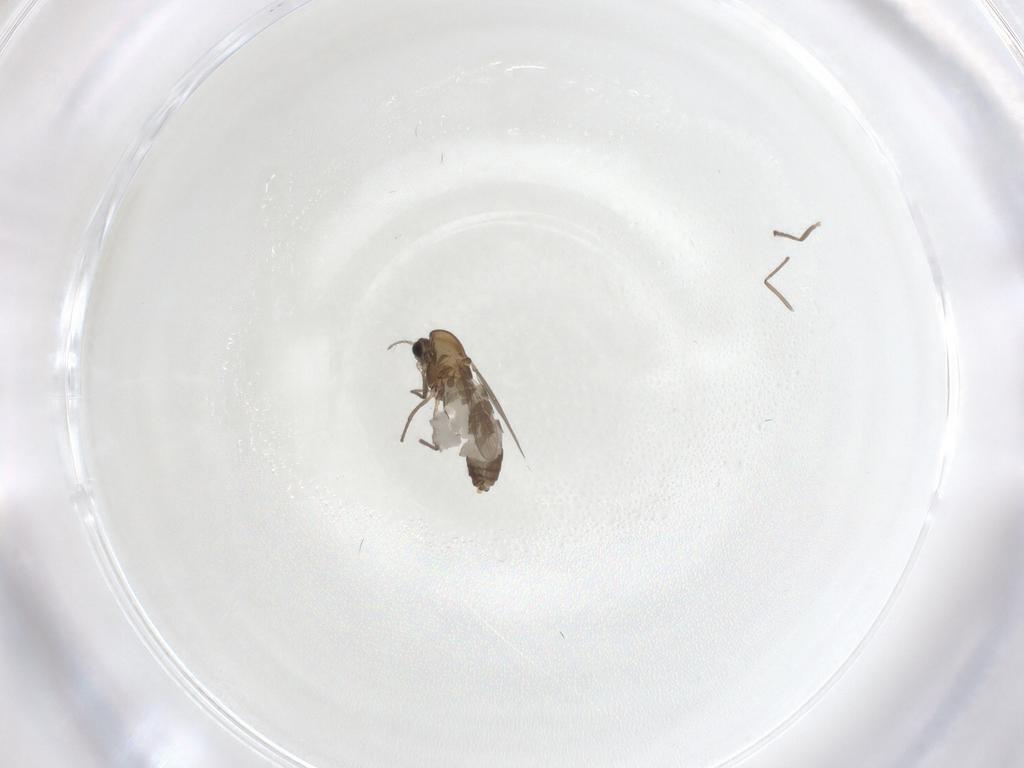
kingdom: Animalia
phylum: Arthropoda
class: Insecta
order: Diptera
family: Chironomidae
